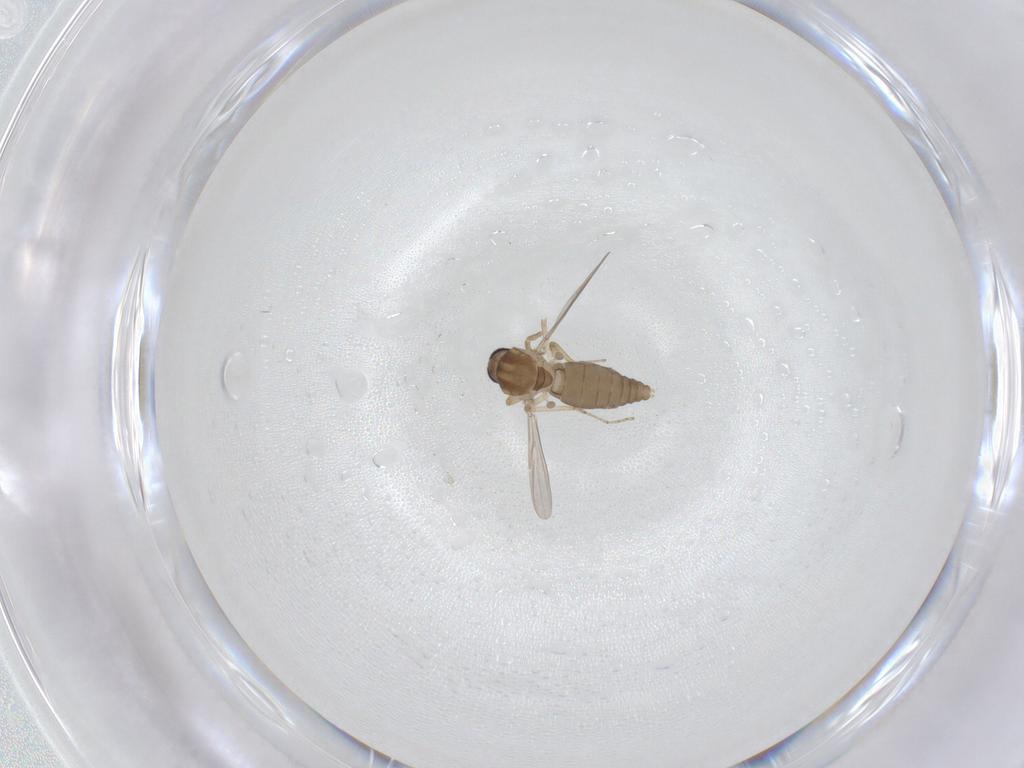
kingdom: Animalia
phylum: Arthropoda
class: Insecta
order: Diptera
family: Ceratopogonidae
